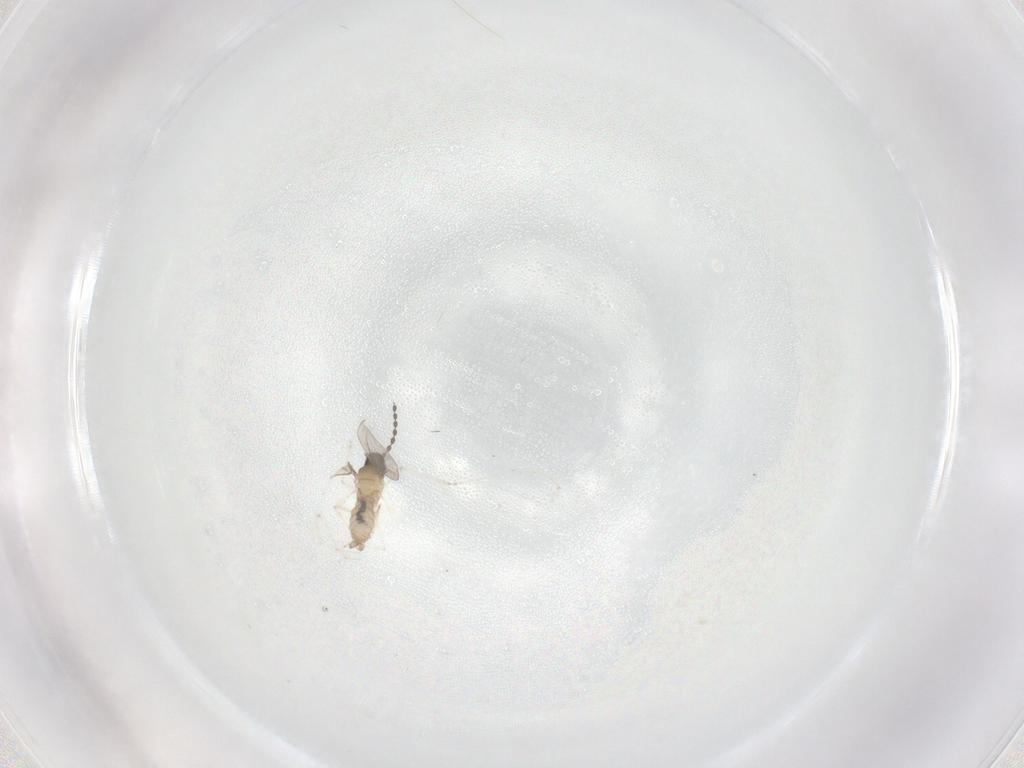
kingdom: Animalia
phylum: Arthropoda
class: Insecta
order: Diptera
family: Cecidomyiidae
